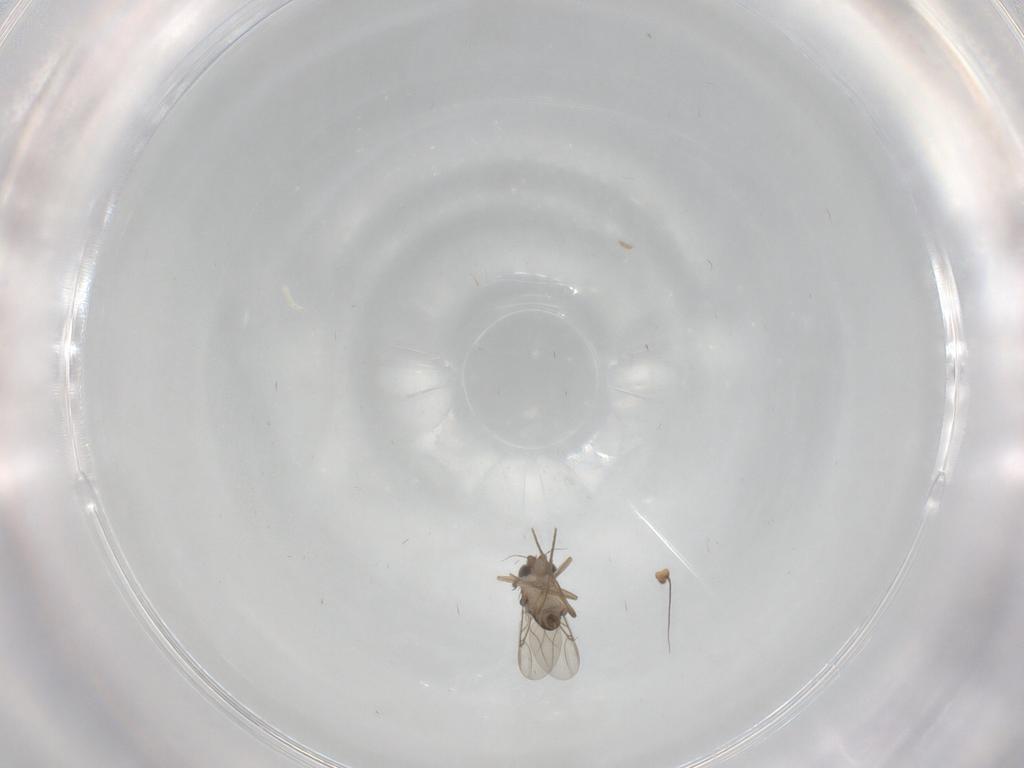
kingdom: Animalia
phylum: Arthropoda
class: Insecta
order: Diptera
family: Phoridae
